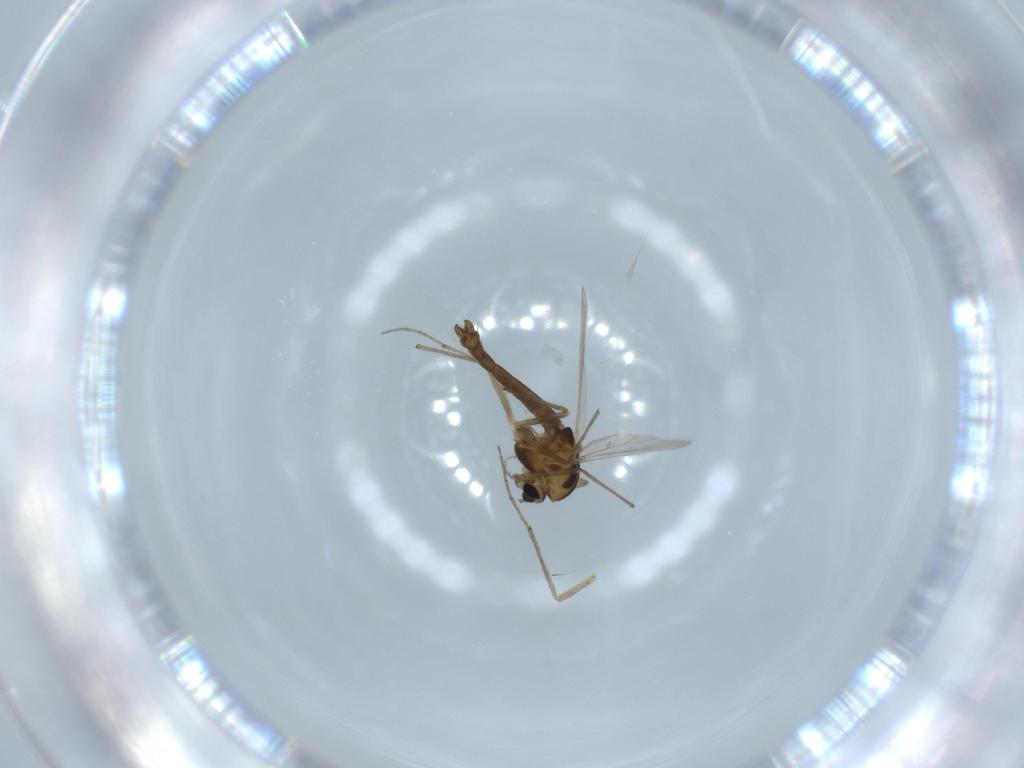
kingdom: Animalia
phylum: Arthropoda
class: Insecta
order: Diptera
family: Chironomidae
